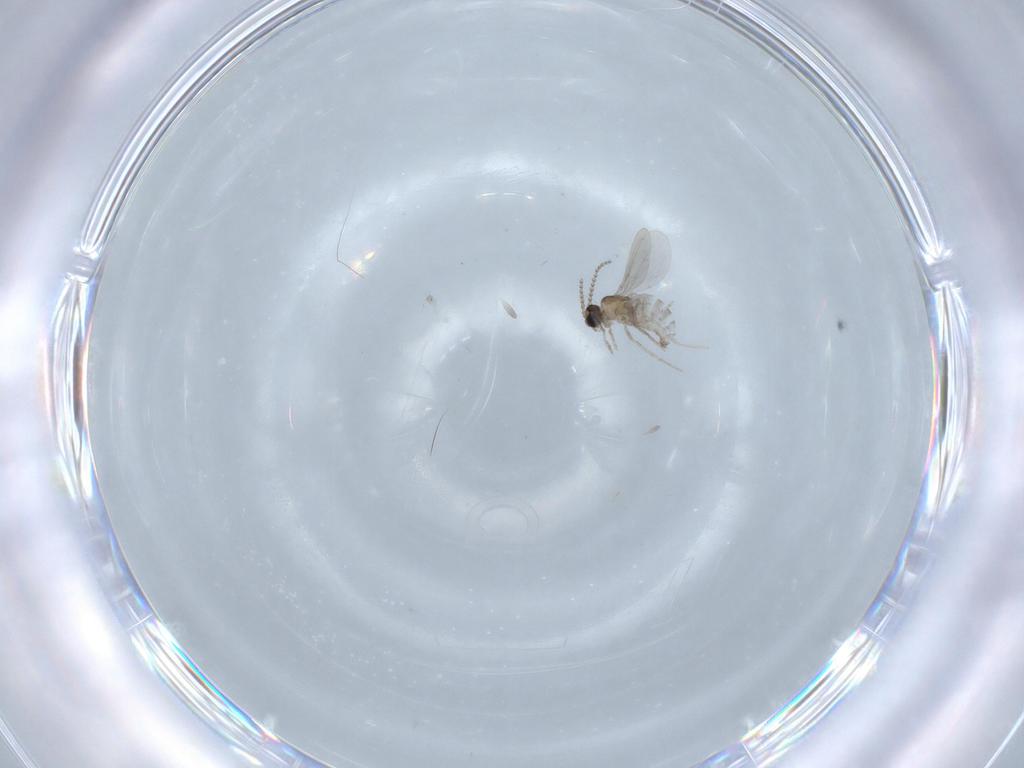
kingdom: Animalia
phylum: Arthropoda
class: Insecta
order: Diptera
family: Cecidomyiidae
